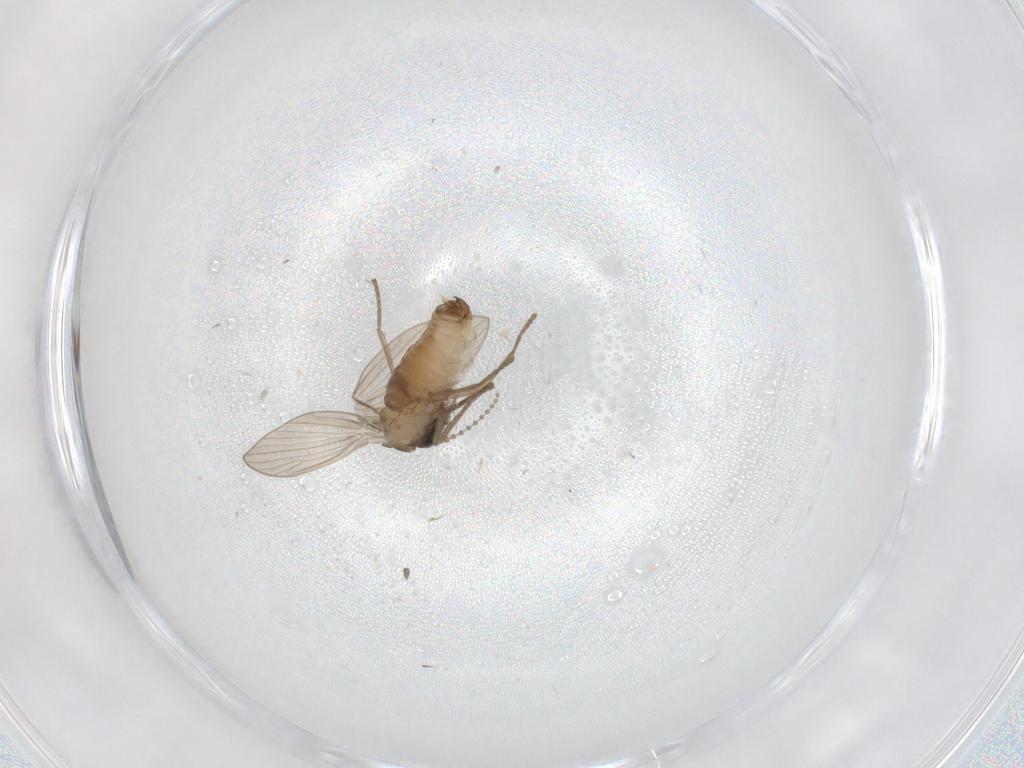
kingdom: Animalia
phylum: Arthropoda
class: Insecta
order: Diptera
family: Psychodidae
